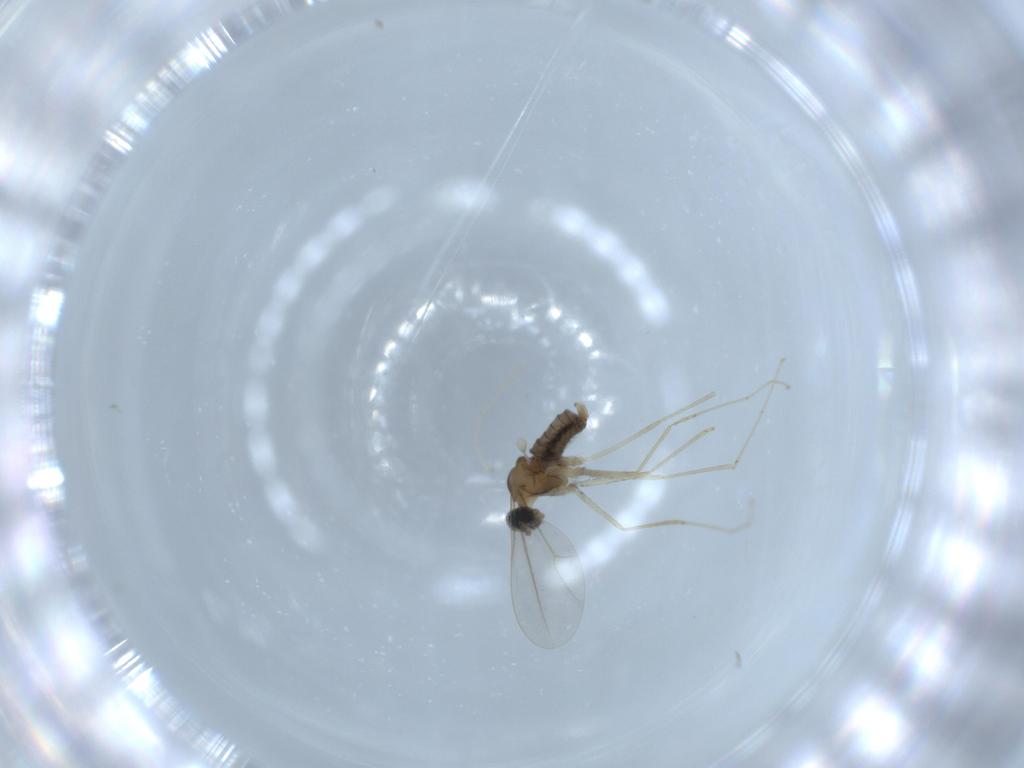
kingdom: Animalia
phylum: Arthropoda
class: Insecta
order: Diptera
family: Cecidomyiidae
